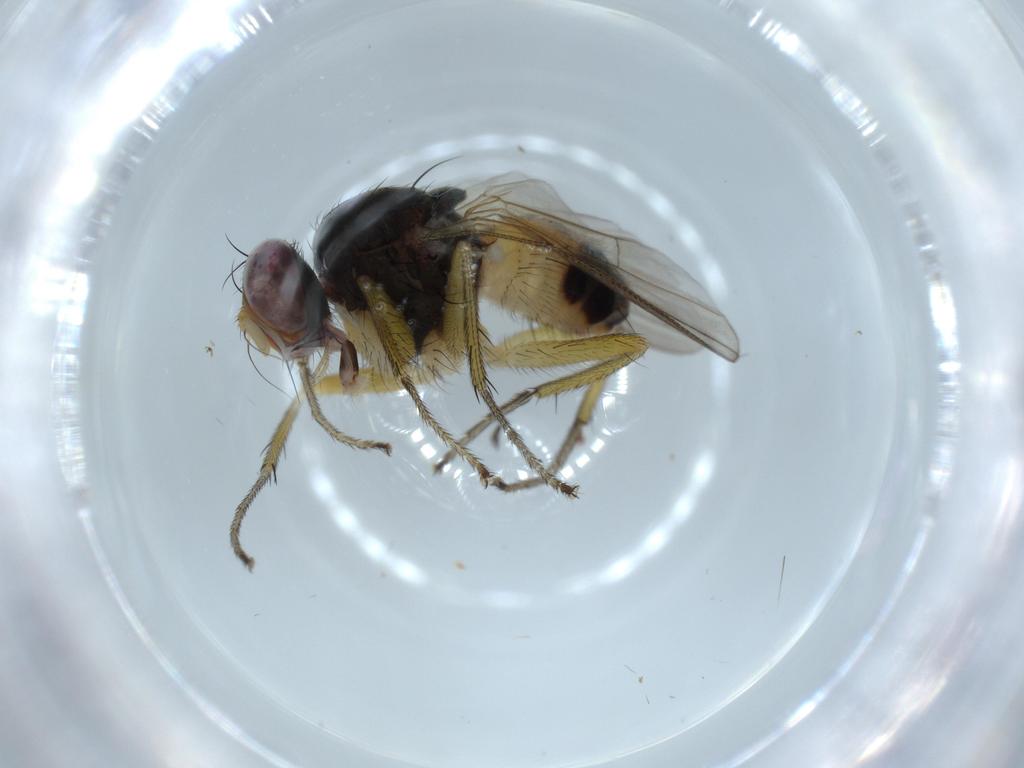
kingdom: Animalia
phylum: Arthropoda
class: Insecta
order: Diptera
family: Muscidae
